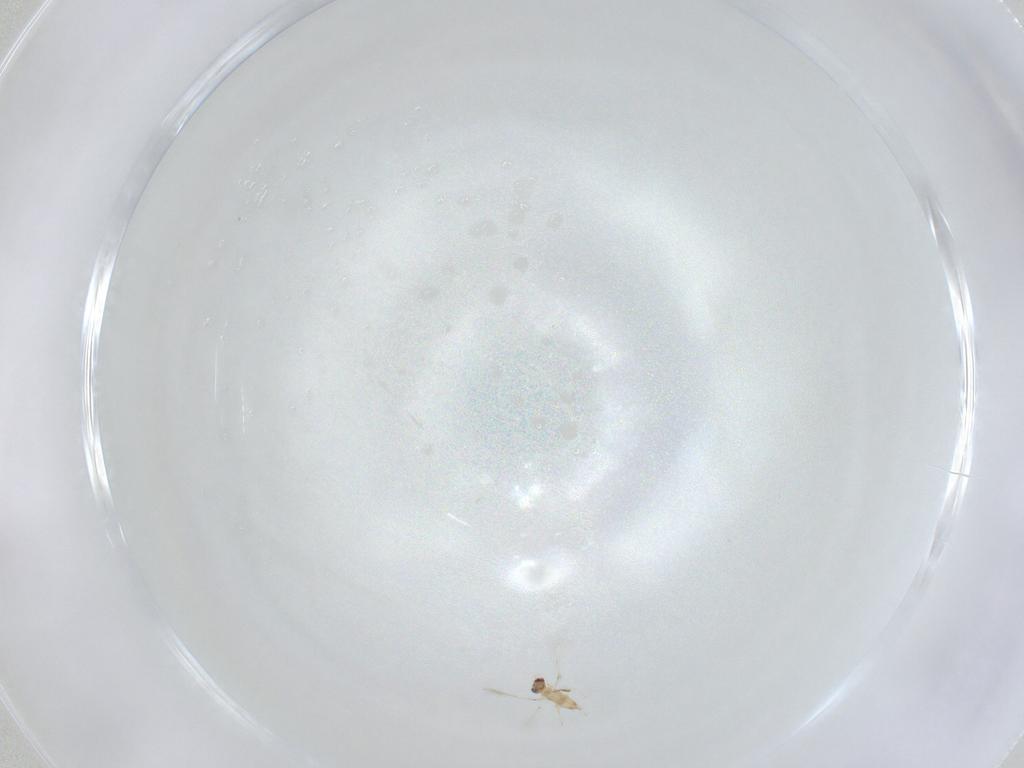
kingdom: Animalia
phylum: Arthropoda
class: Insecta
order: Hymenoptera
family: Mymaridae
